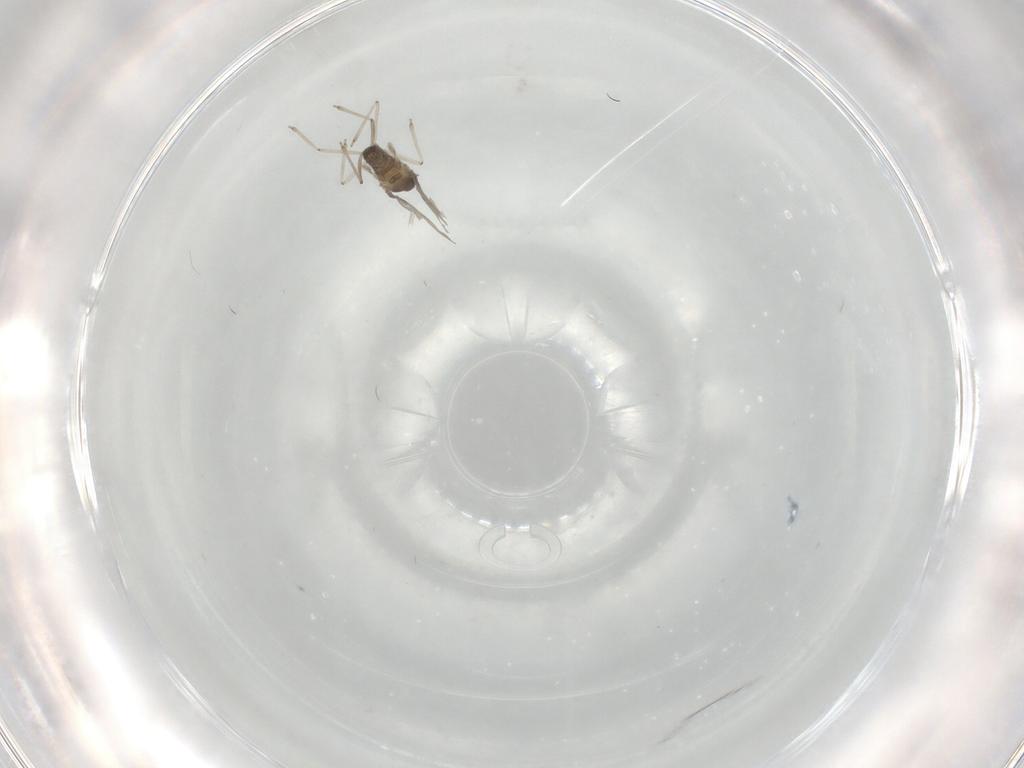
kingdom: Animalia
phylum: Arthropoda
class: Insecta
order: Diptera
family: Cecidomyiidae
